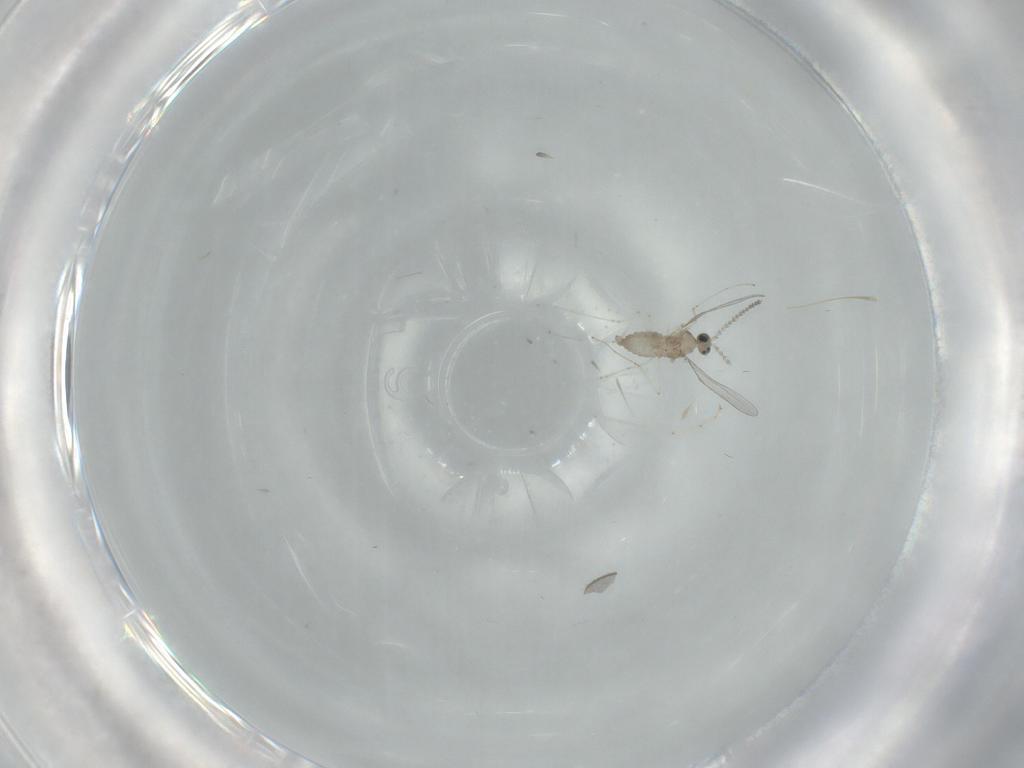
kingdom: Animalia
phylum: Arthropoda
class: Insecta
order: Diptera
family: Cecidomyiidae
